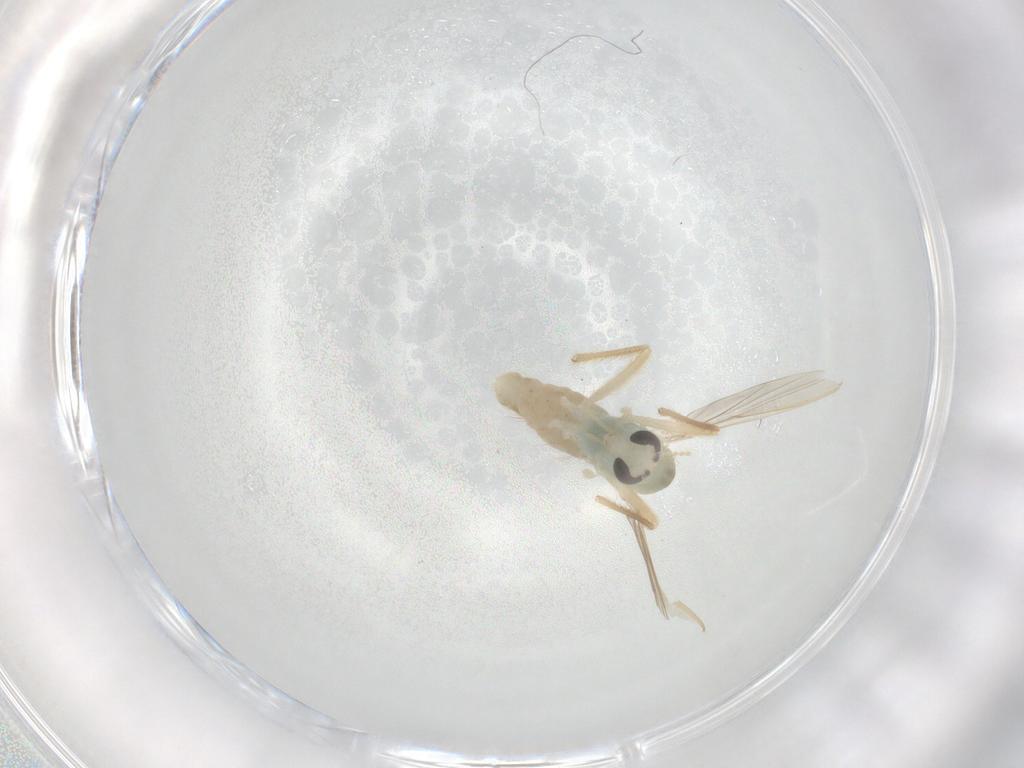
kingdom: Animalia
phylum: Arthropoda
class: Insecta
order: Diptera
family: Chironomidae
